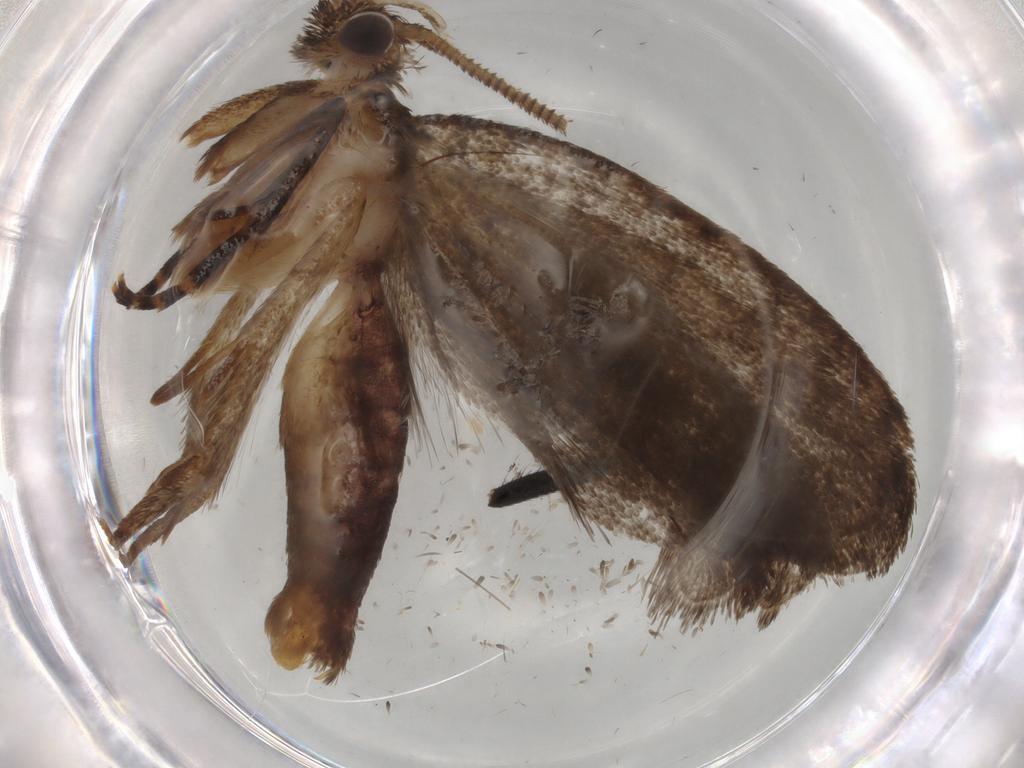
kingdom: Animalia
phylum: Arthropoda
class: Insecta
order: Lepidoptera
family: Tineidae
